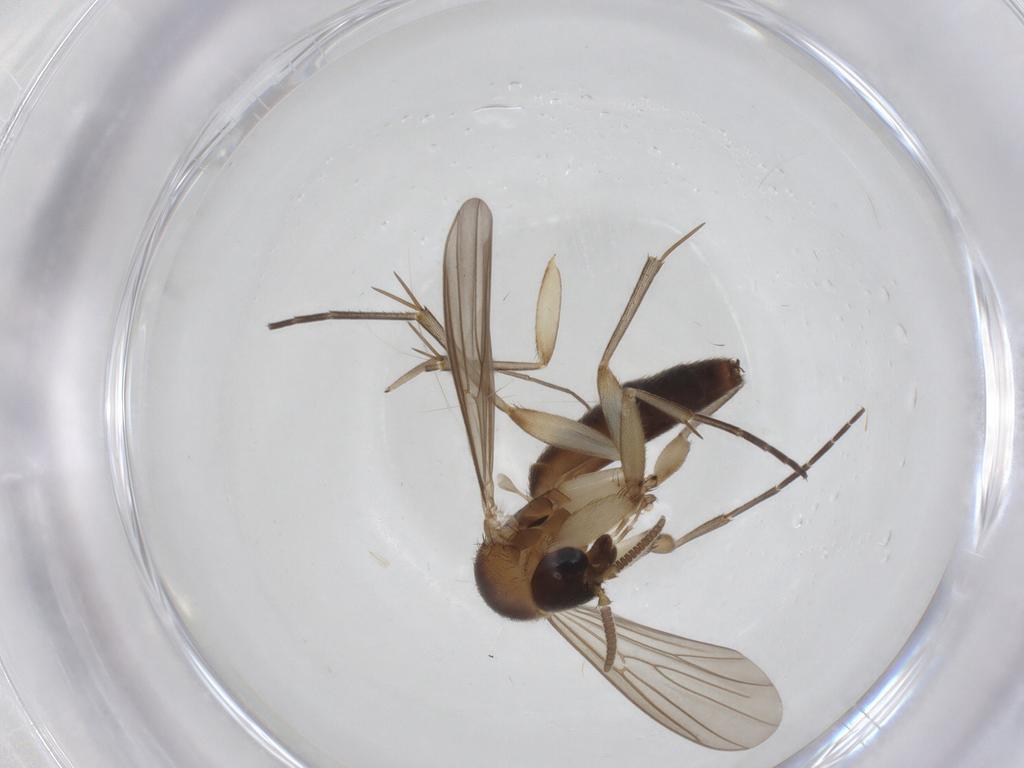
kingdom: Animalia
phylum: Arthropoda
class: Insecta
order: Diptera
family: Mycetophilidae
